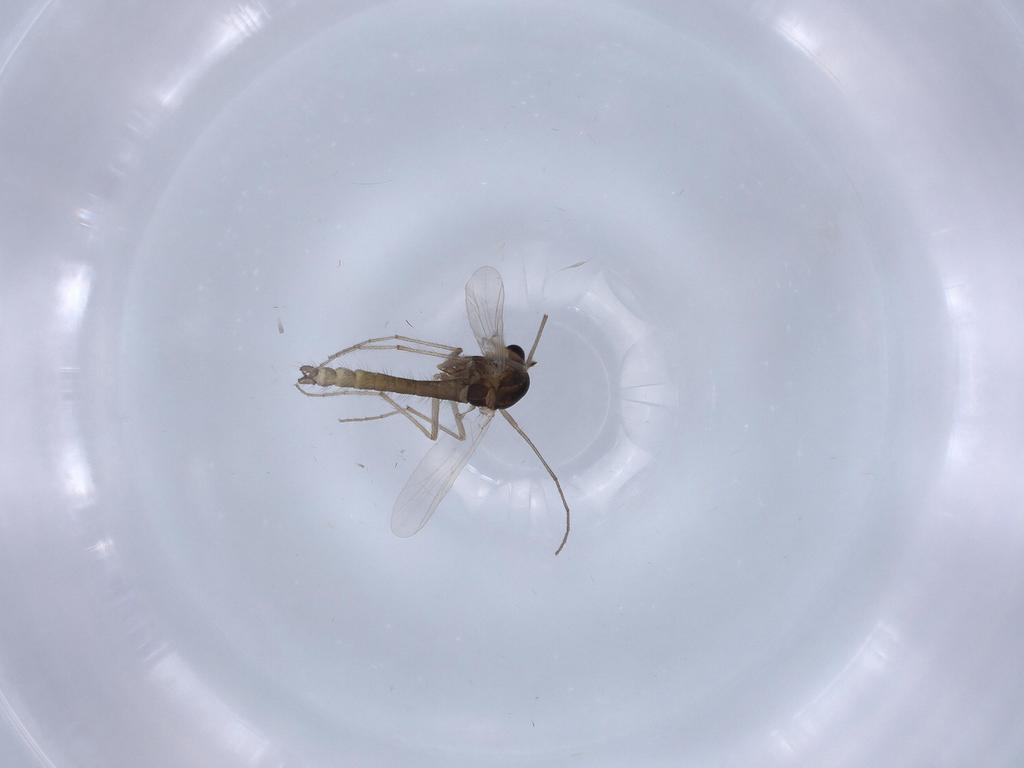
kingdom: Animalia
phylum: Arthropoda
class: Insecta
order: Diptera
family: Chironomidae
